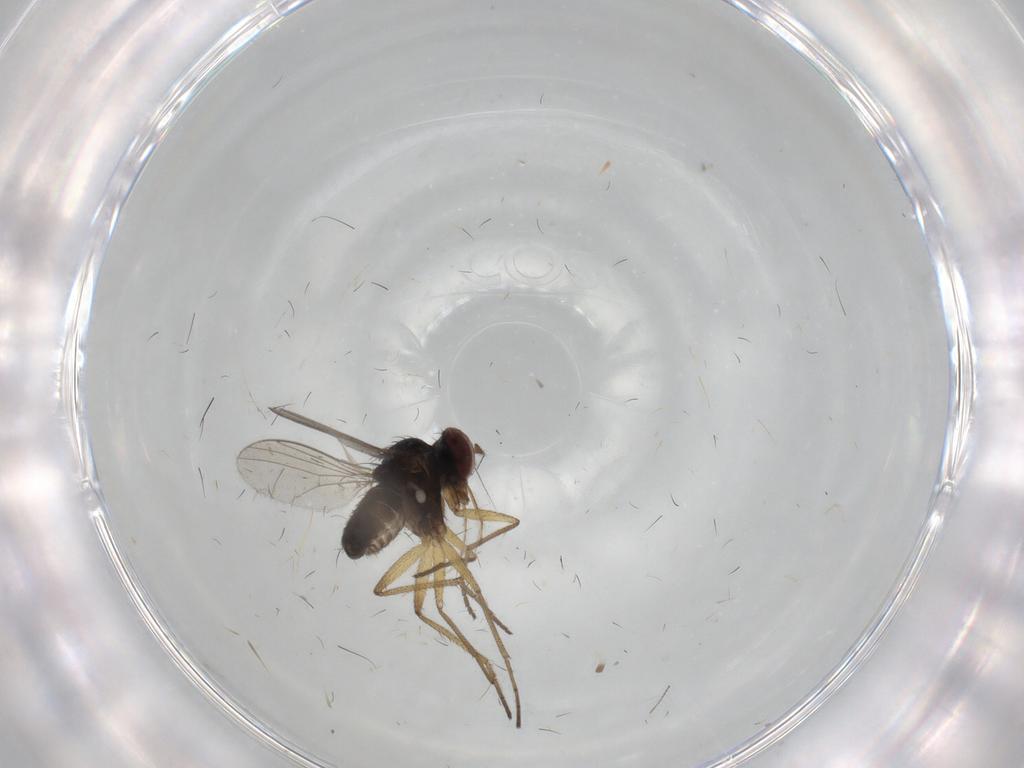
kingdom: Animalia
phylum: Arthropoda
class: Insecta
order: Diptera
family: Dolichopodidae
